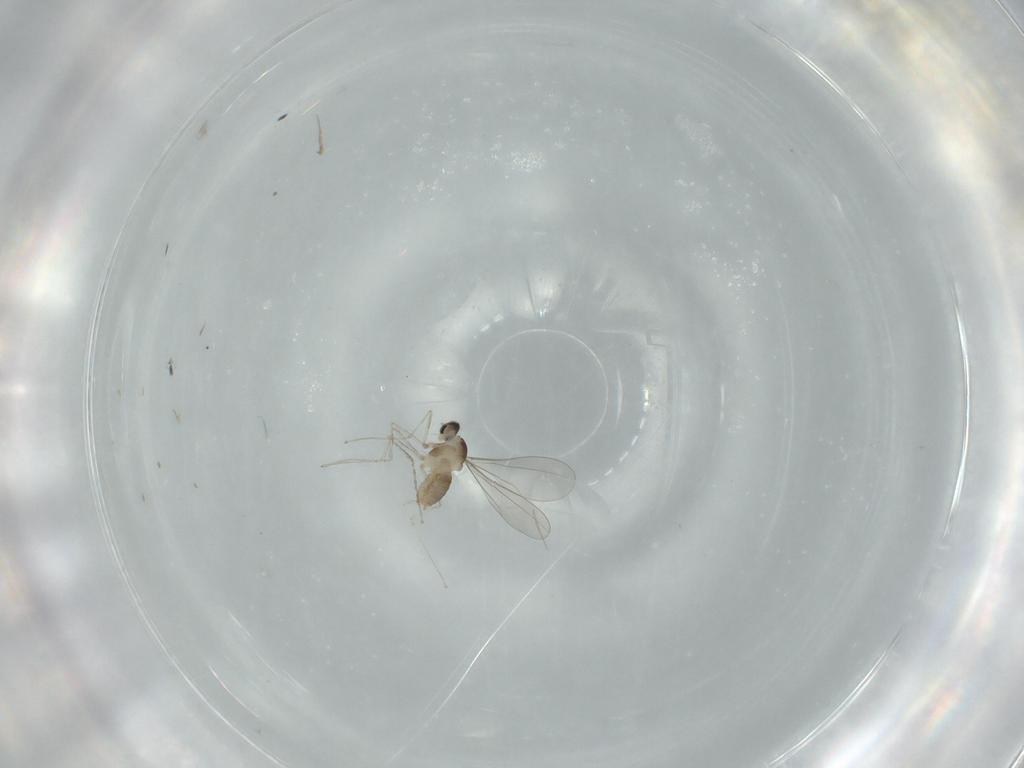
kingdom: Animalia
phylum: Arthropoda
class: Insecta
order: Diptera
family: Cecidomyiidae
